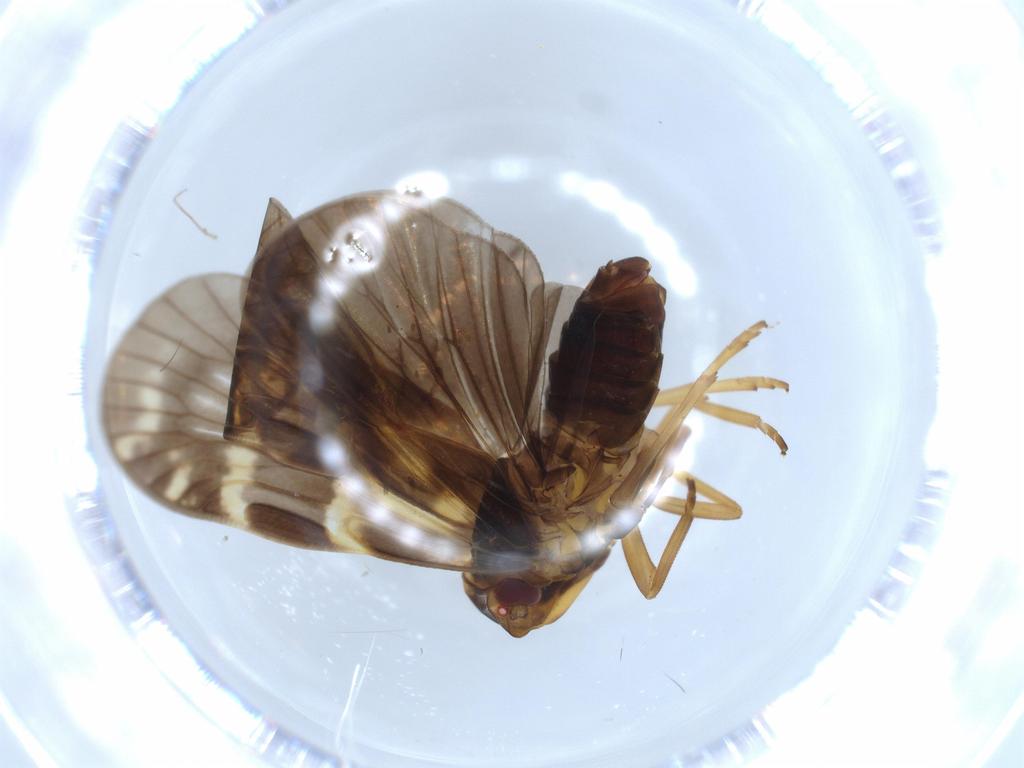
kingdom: Animalia
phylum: Arthropoda
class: Insecta
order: Hemiptera
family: Cixiidae
